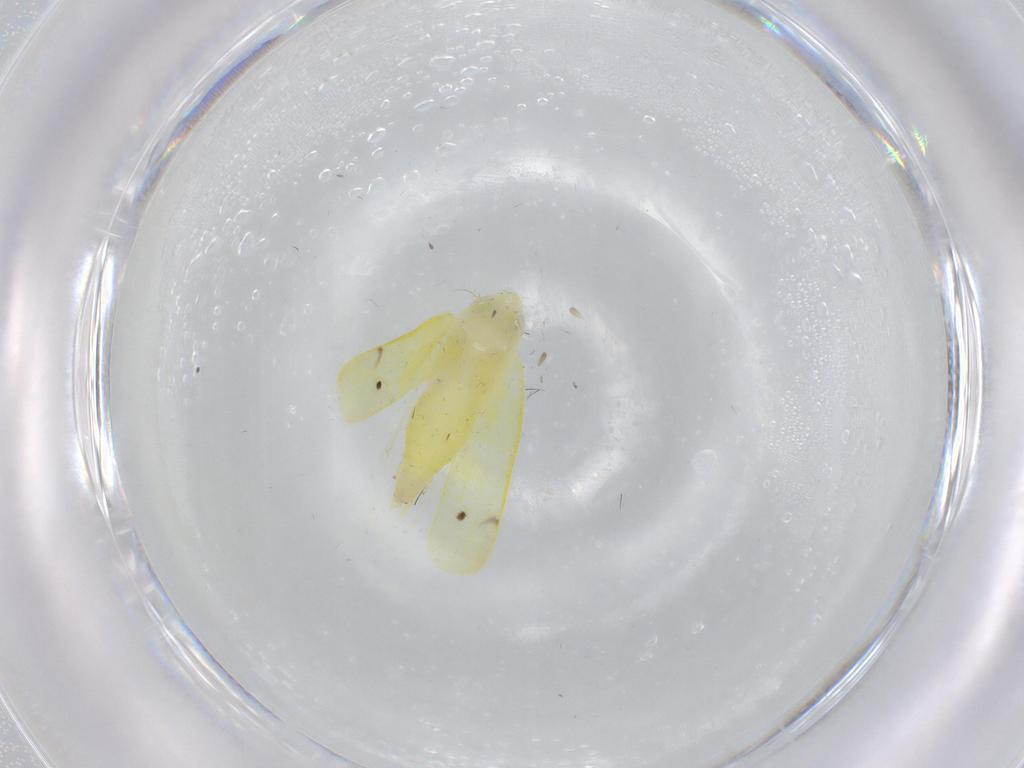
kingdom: Animalia
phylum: Arthropoda
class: Insecta
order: Hemiptera
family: Cicadellidae
